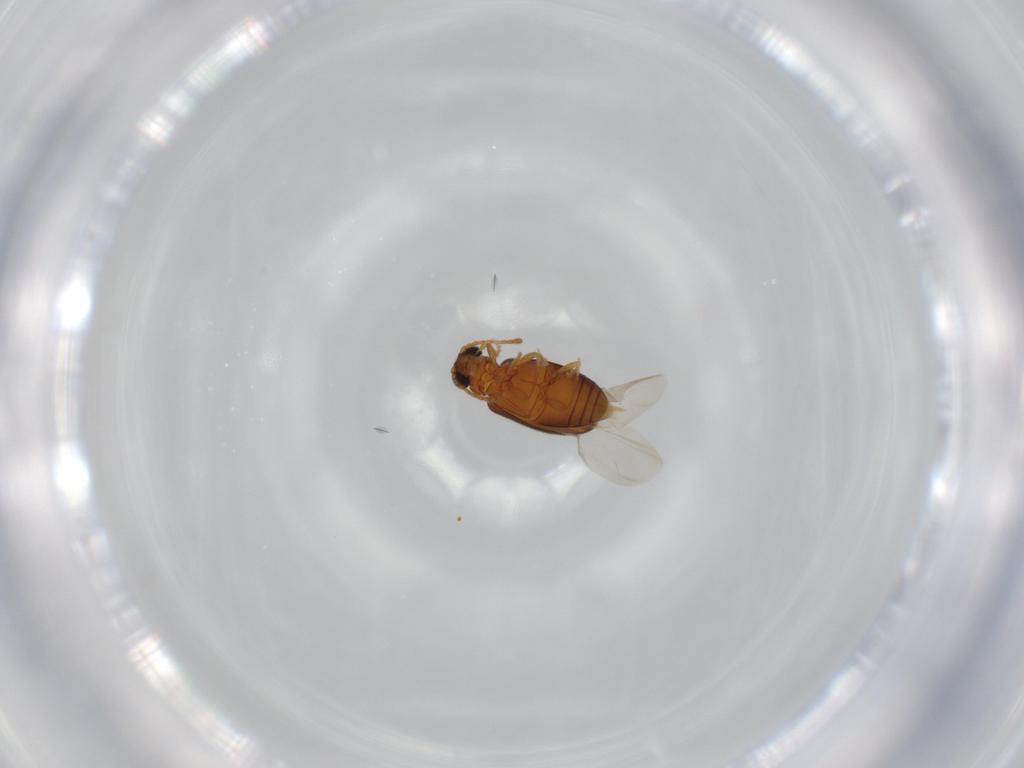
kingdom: Animalia
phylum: Arthropoda
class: Insecta
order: Coleoptera
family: Aderidae
